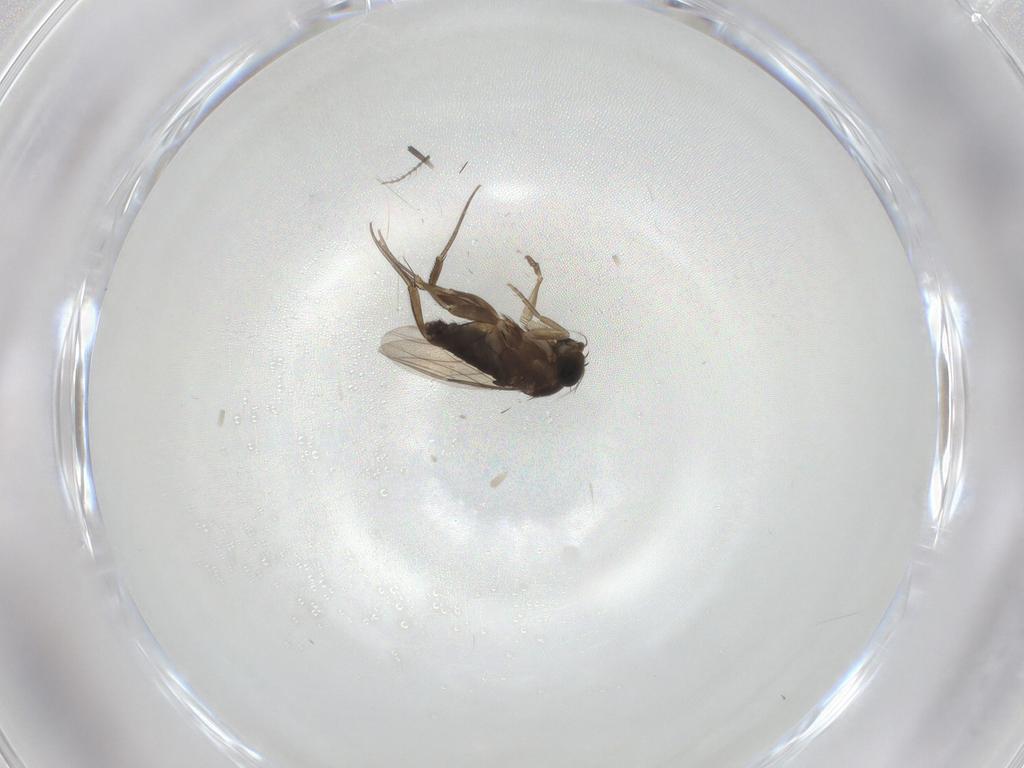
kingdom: Animalia
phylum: Arthropoda
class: Insecta
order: Diptera
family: Phoridae
